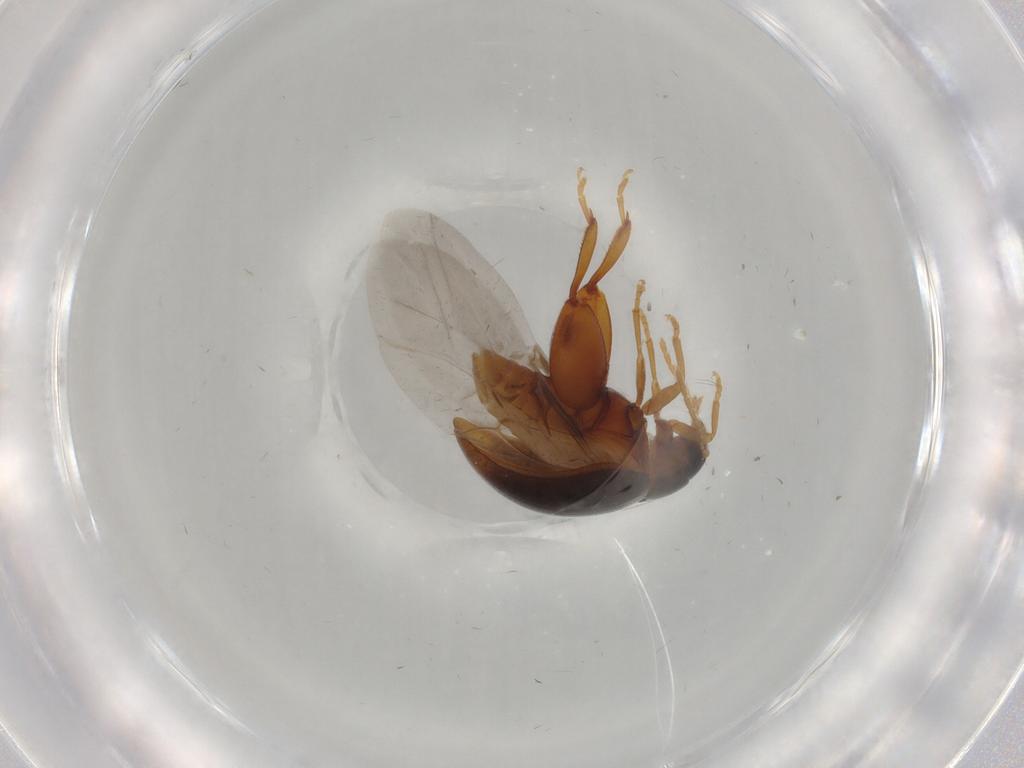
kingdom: Animalia
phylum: Arthropoda
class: Insecta
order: Coleoptera
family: Chrysomelidae
